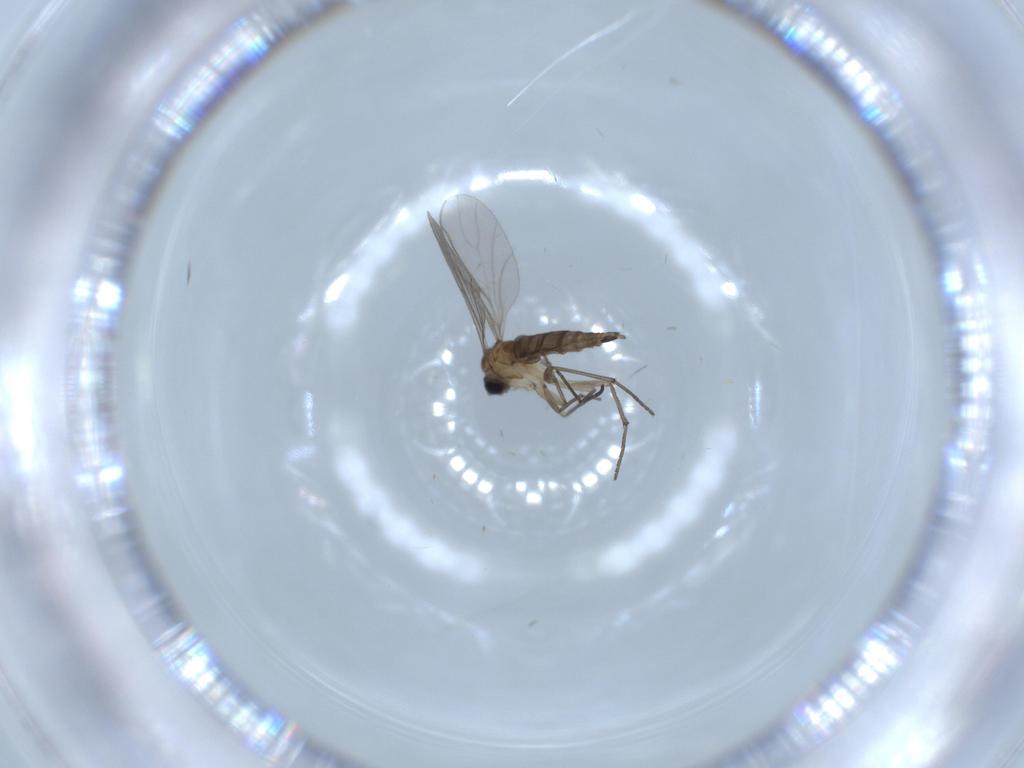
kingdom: Animalia
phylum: Arthropoda
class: Insecta
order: Diptera
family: Sciaridae
